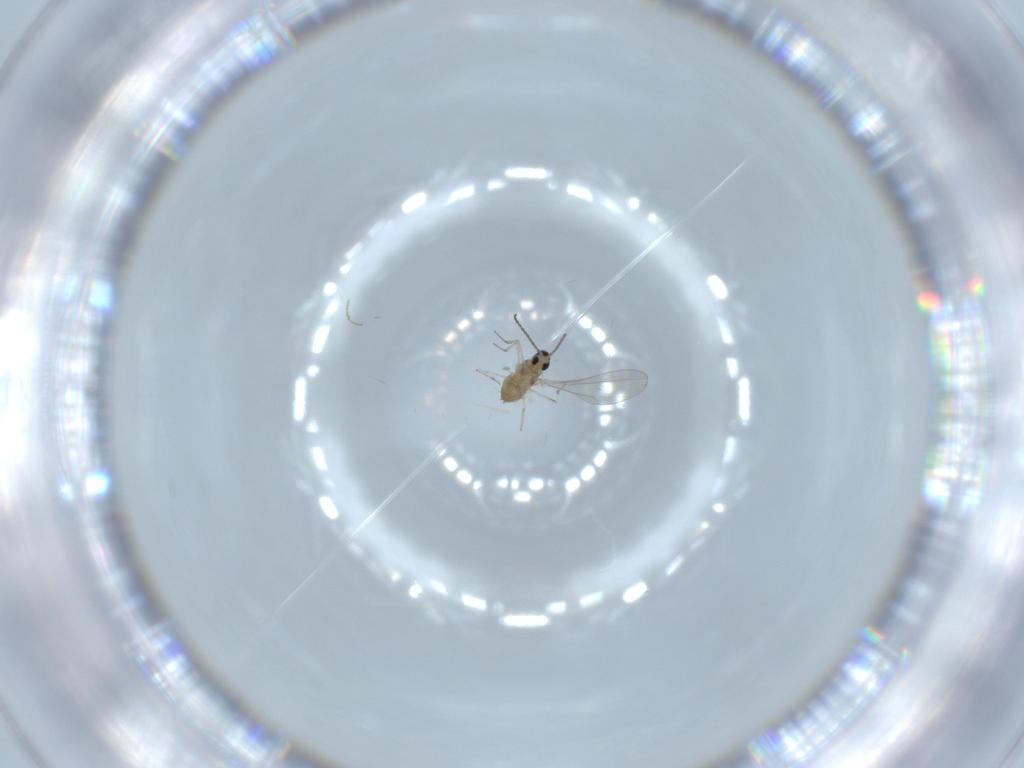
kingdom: Animalia
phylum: Arthropoda
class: Insecta
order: Diptera
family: Cecidomyiidae
